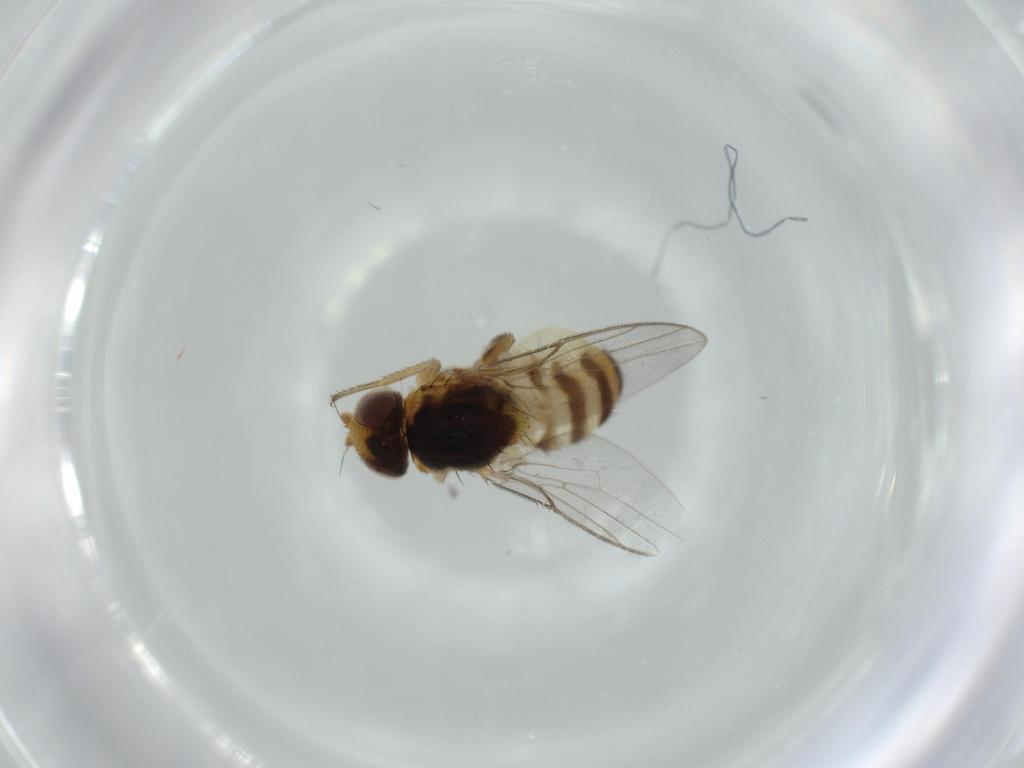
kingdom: Animalia
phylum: Arthropoda
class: Insecta
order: Diptera
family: Chloropidae
